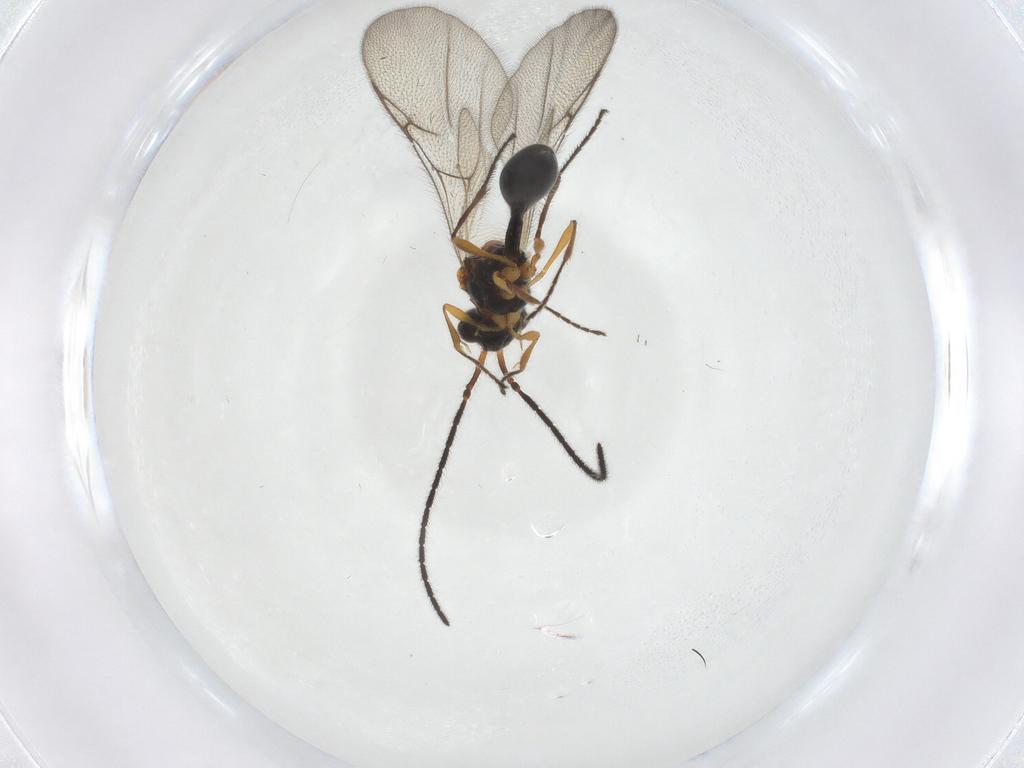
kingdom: Animalia
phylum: Arthropoda
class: Insecta
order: Hymenoptera
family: Diapriidae
